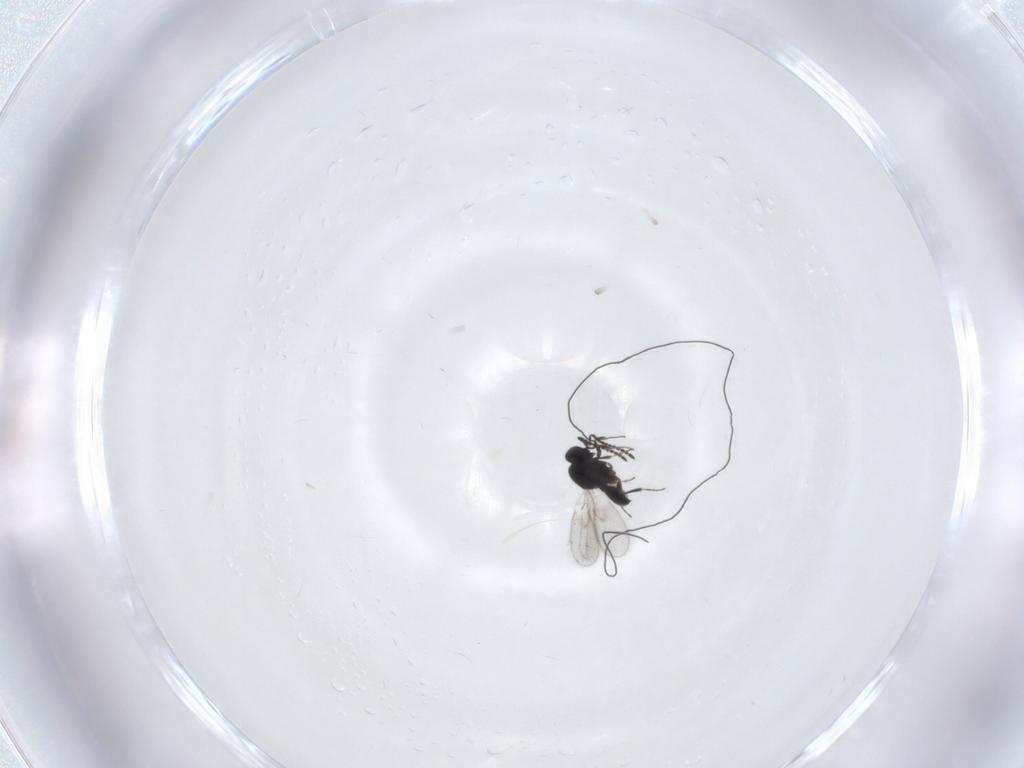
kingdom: Animalia
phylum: Arthropoda
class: Insecta
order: Hymenoptera
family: Scelionidae
